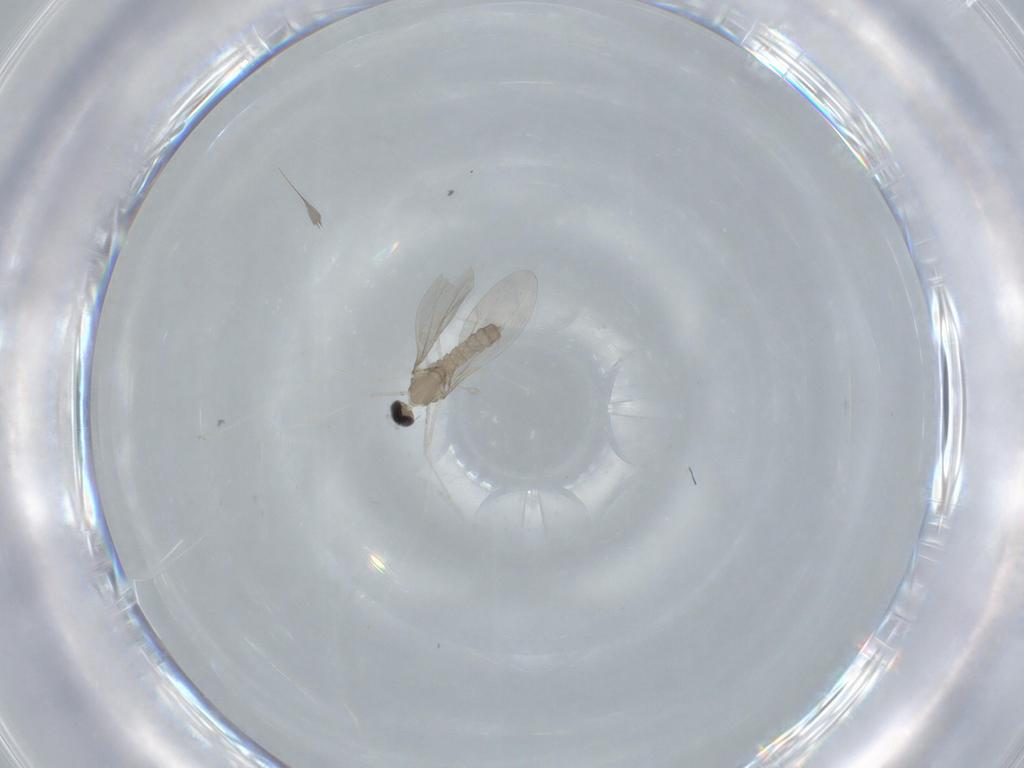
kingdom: Animalia
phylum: Arthropoda
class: Insecta
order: Diptera
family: Cecidomyiidae
